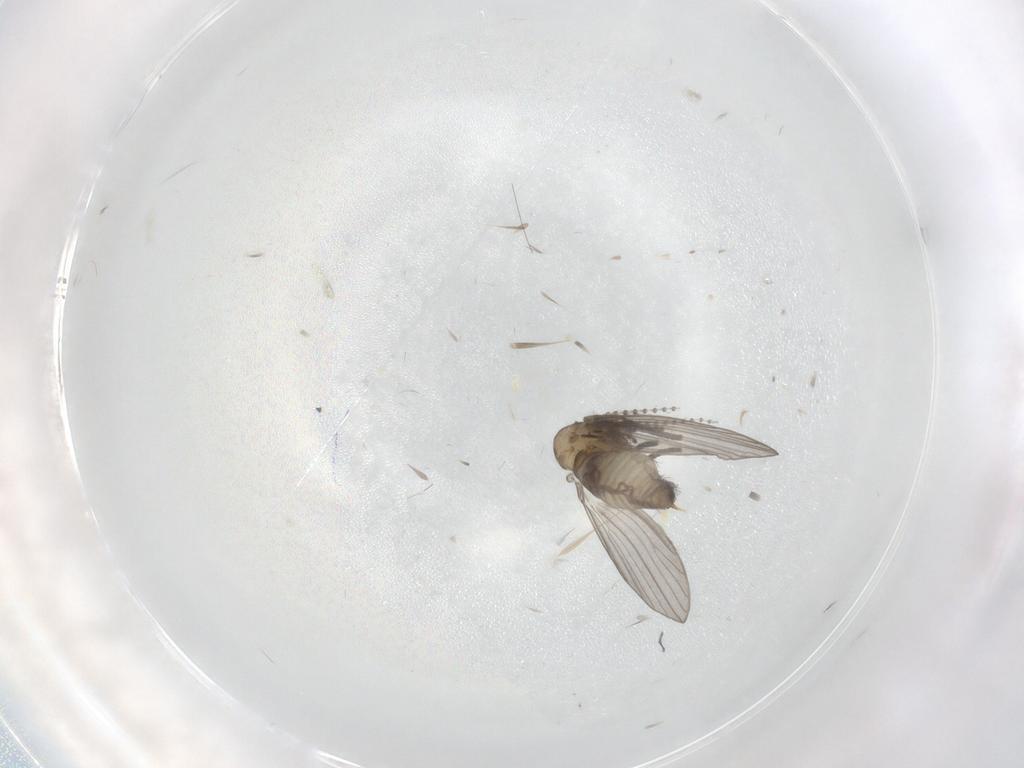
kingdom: Animalia
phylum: Arthropoda
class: Insecta
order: Diptera
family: Psychodidae
